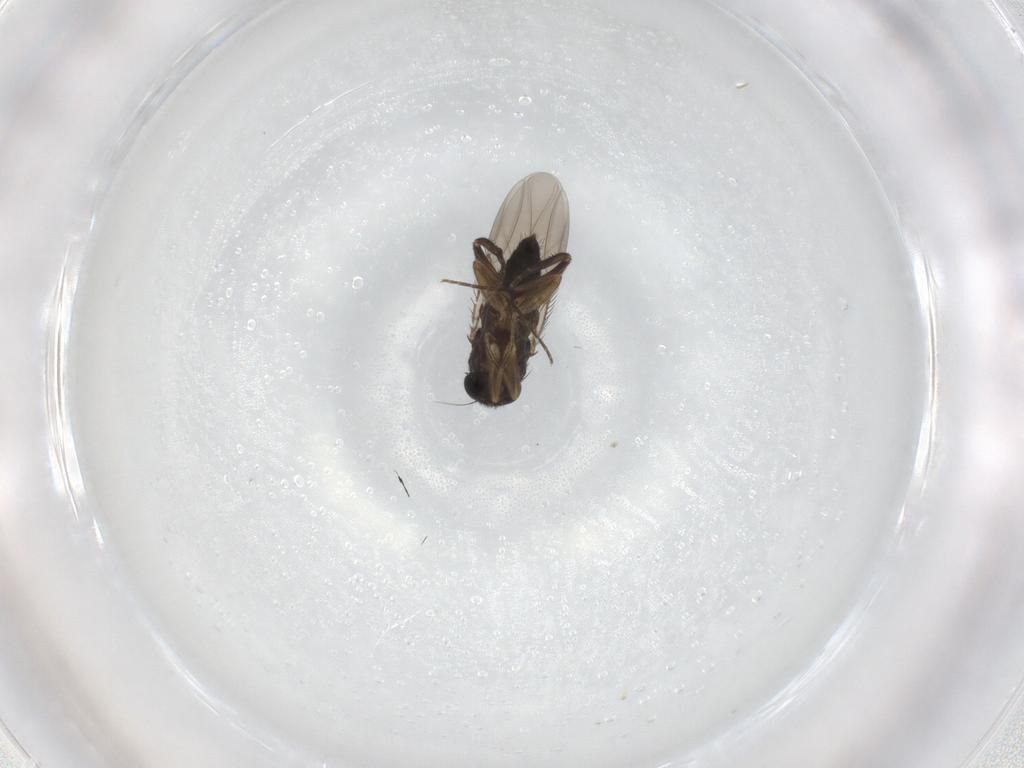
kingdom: Animalia
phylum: Arthropoda
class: Insecta
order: Diptera
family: Phoridae
